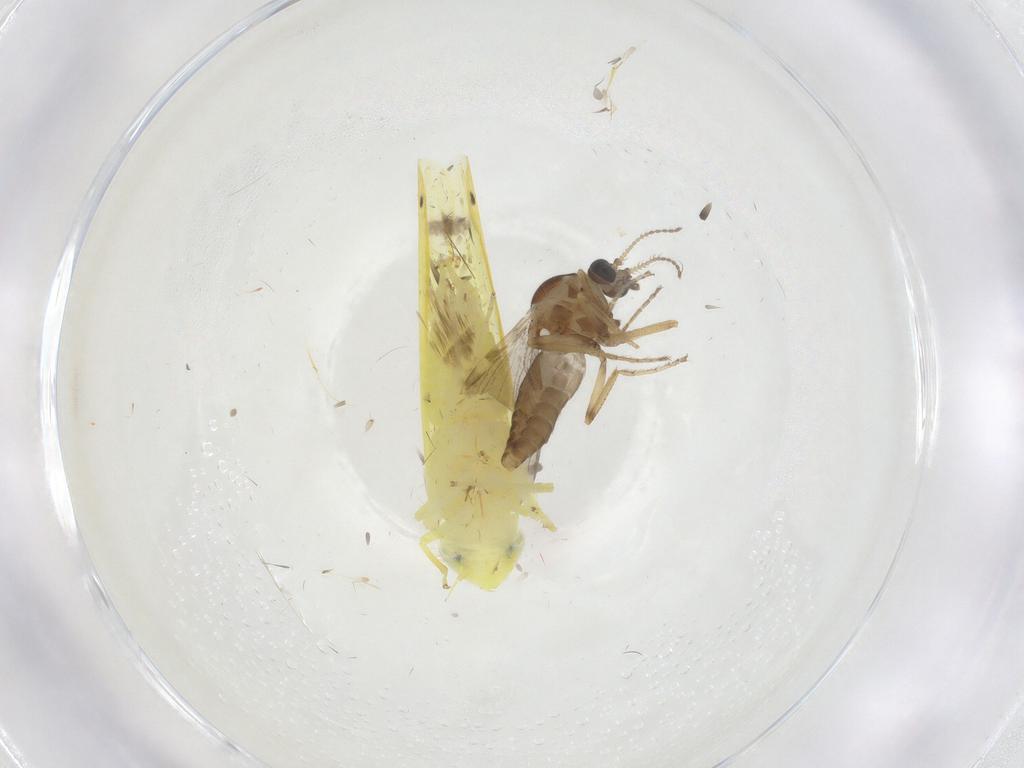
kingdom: Animalia
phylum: Arthropoda
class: Insecta
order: Diptera
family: Ceratopogonidae
